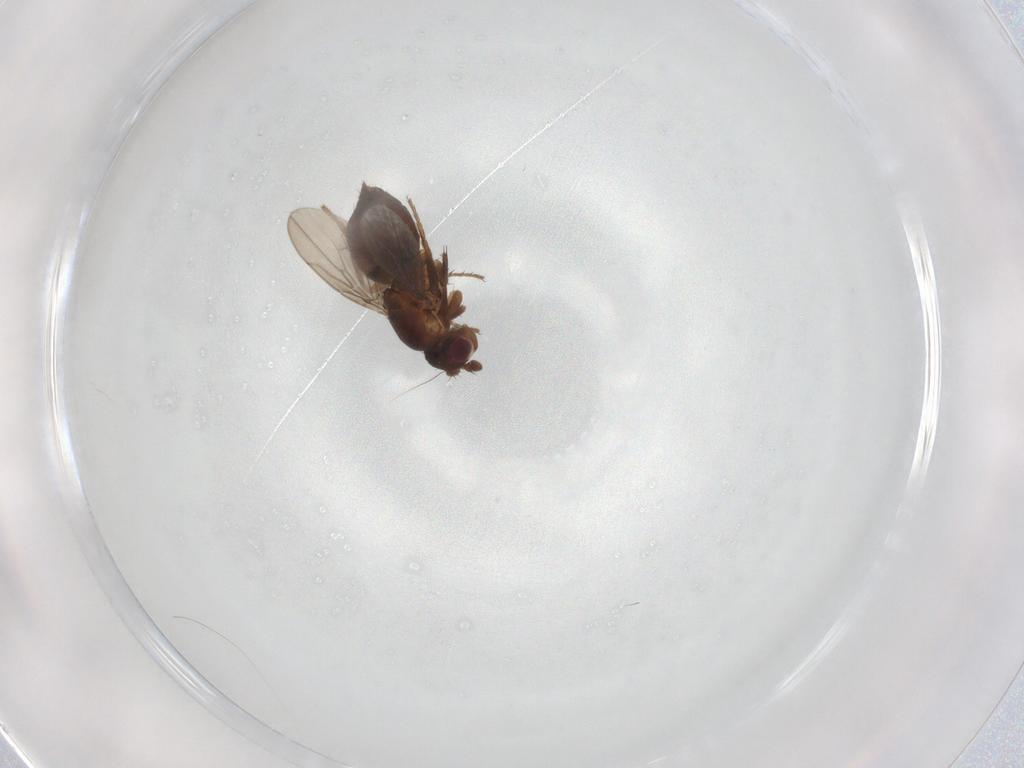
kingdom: Animalia
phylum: Arthropoda
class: Insecta
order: Diptera
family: Sphaeroceridae
